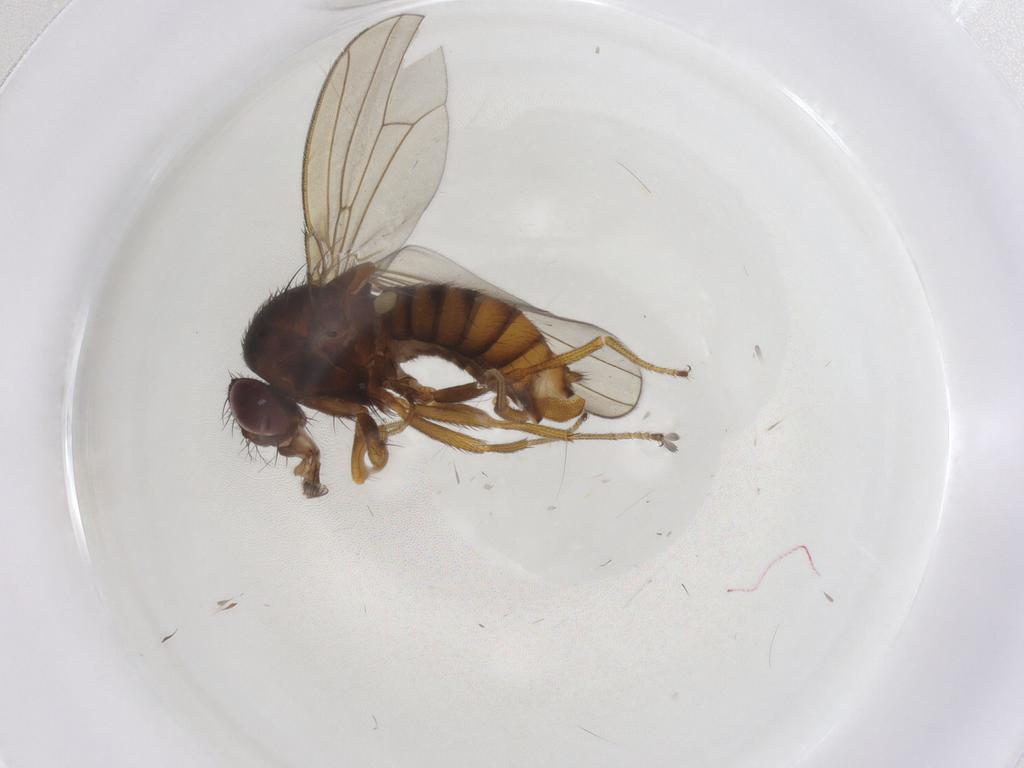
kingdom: Animalia
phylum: Arthropoda
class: Insecta
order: Diptera
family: Drosophilidae
